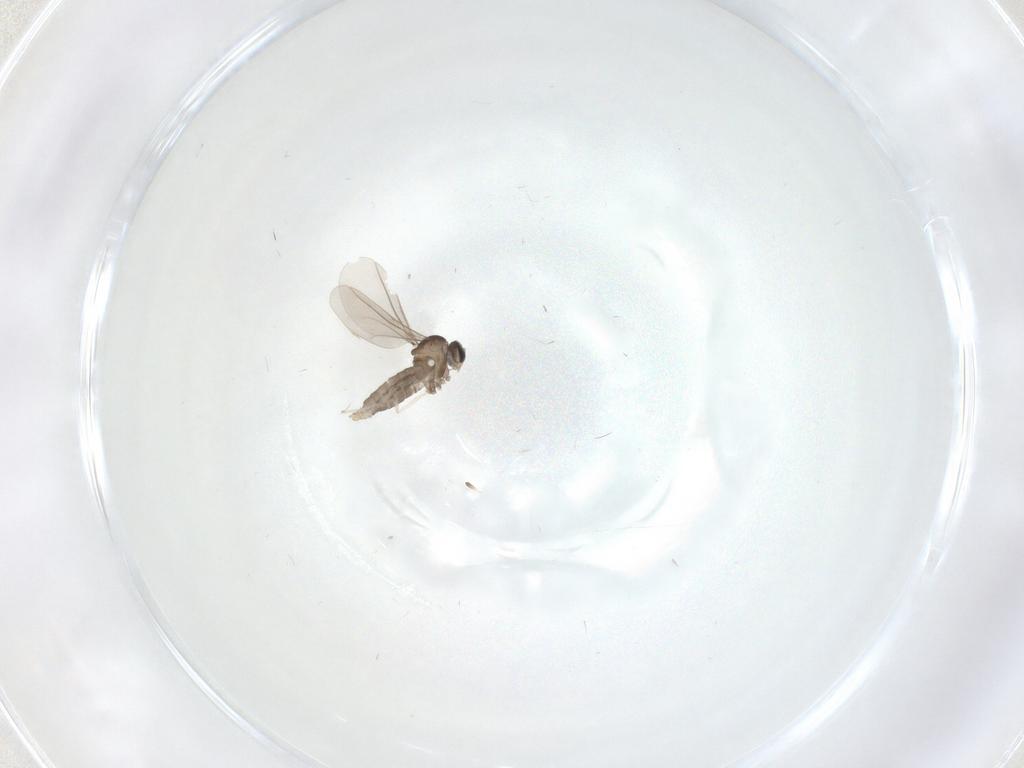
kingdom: Animalia
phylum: Arthropoda
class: Insecta
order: Diptera
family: Cecidomyiidae
